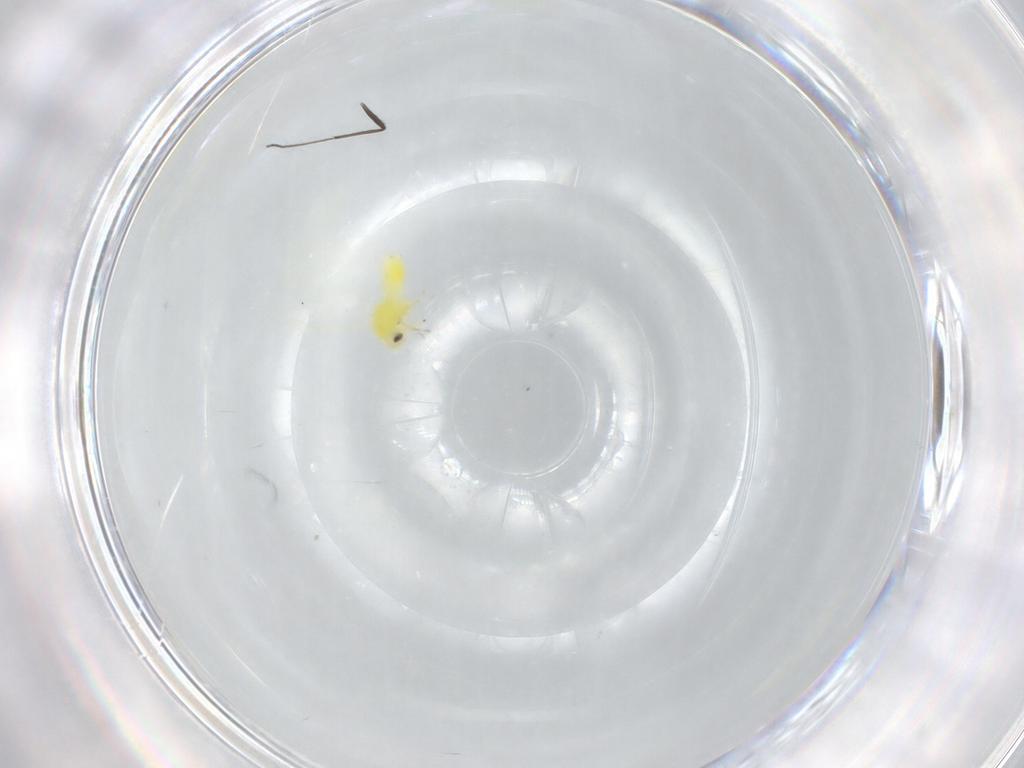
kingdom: Animalia
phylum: Arthropoda
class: Insecta
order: Hemiptera
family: Aleyrodidae
